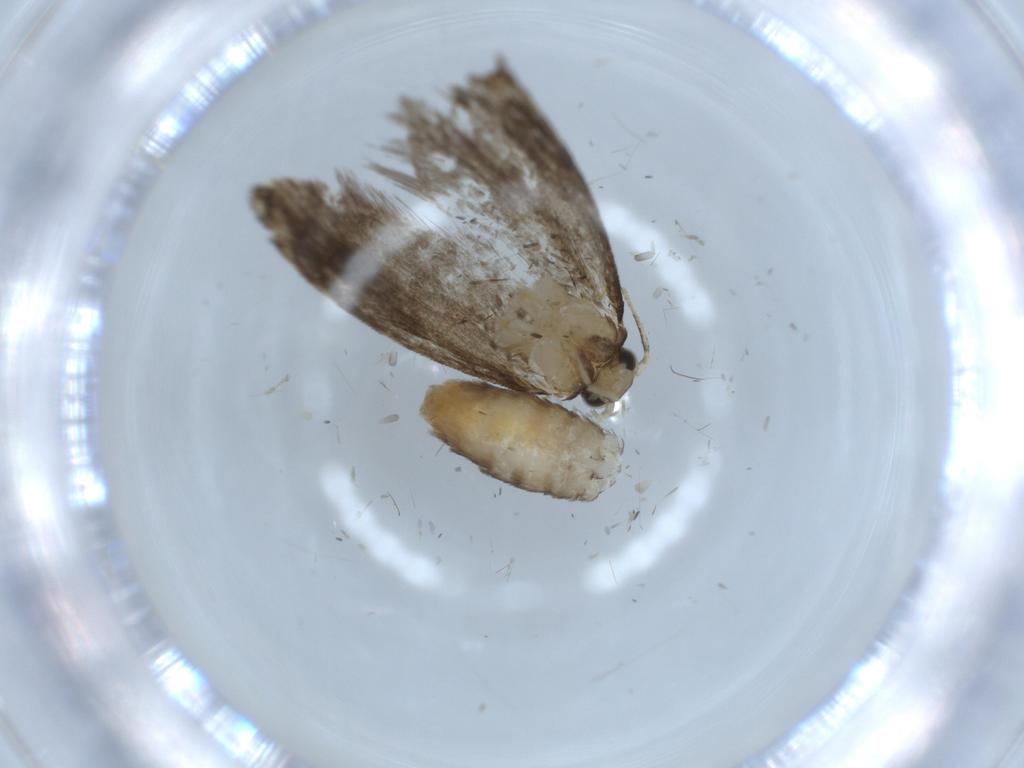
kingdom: Animalia
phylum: Arthropoda
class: Insecta
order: Lepidoptera
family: Tineidae
